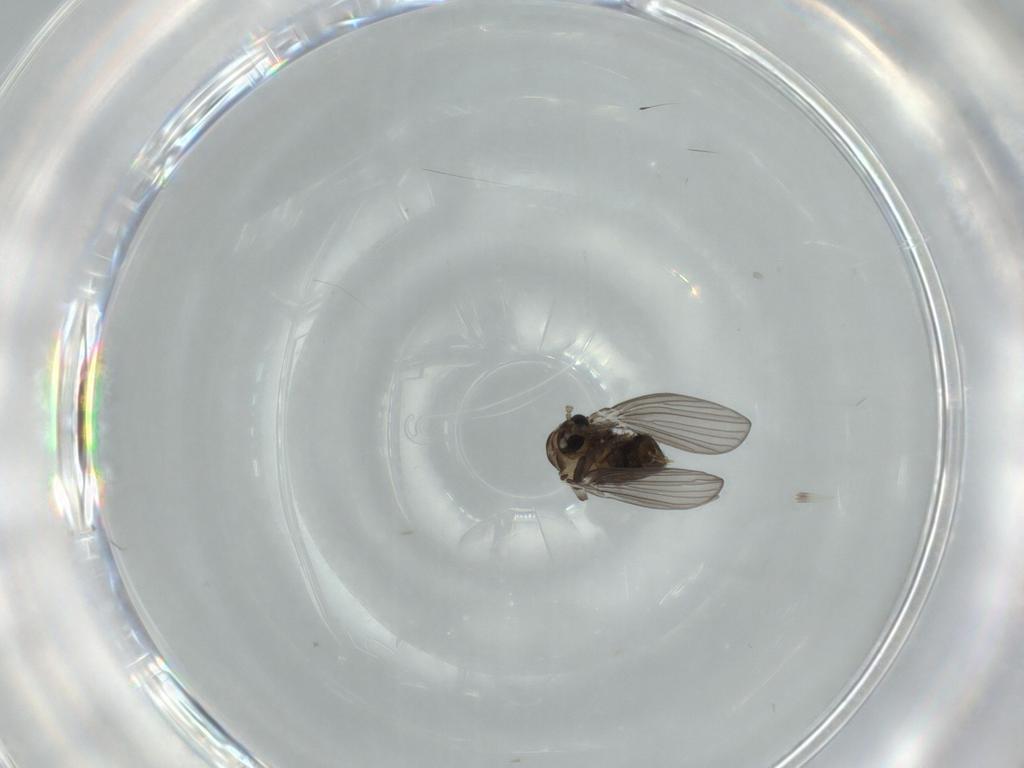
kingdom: Animalia
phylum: Arthropoda
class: Insecta
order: Diptera
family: Psychodidae
